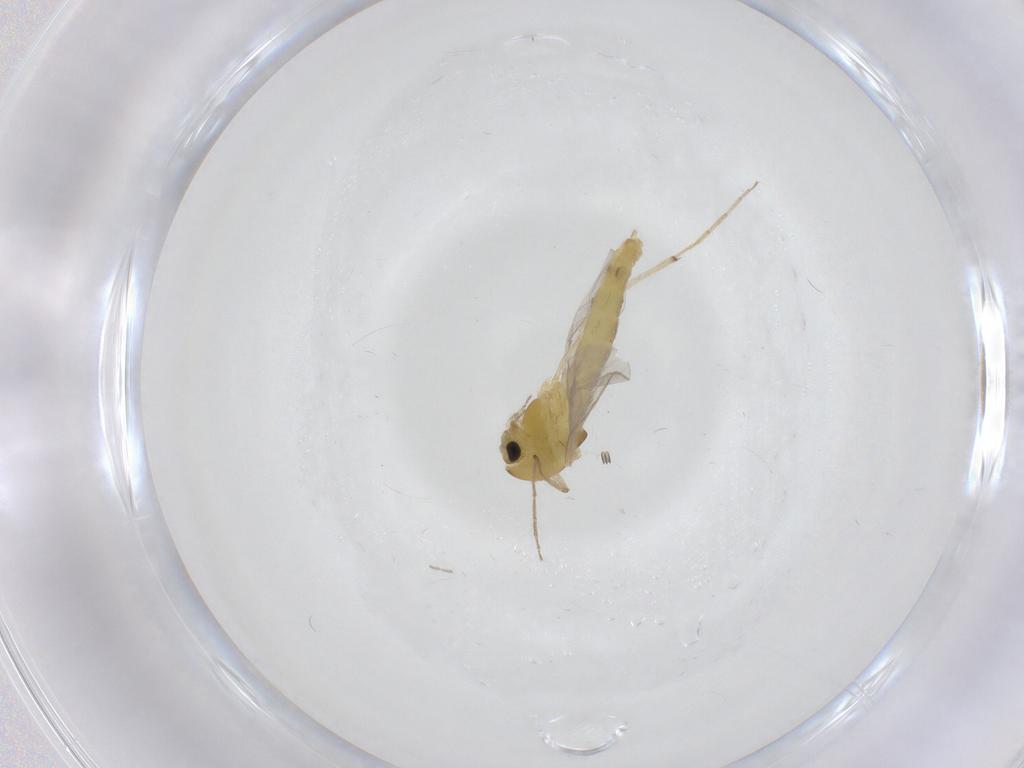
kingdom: Animalia
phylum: Arthropoda
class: Insecta
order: Diptera
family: Chironomidae
